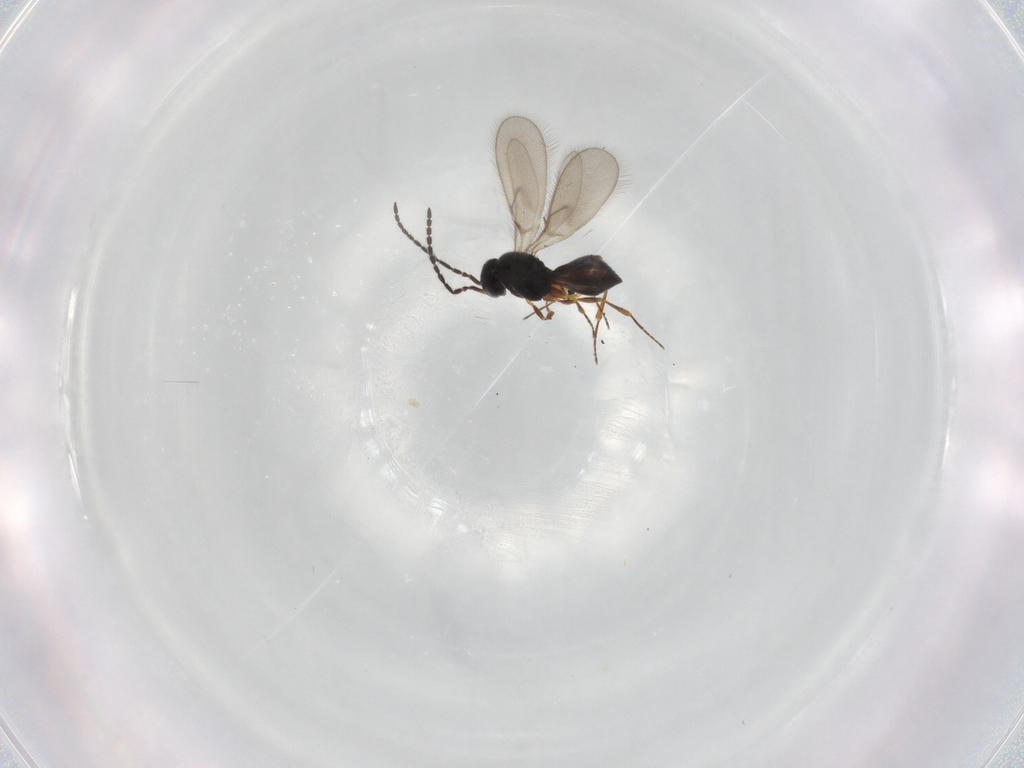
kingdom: Animalia
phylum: Arthropoda
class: Insecta
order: Hymenoptera
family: Scelionidae
